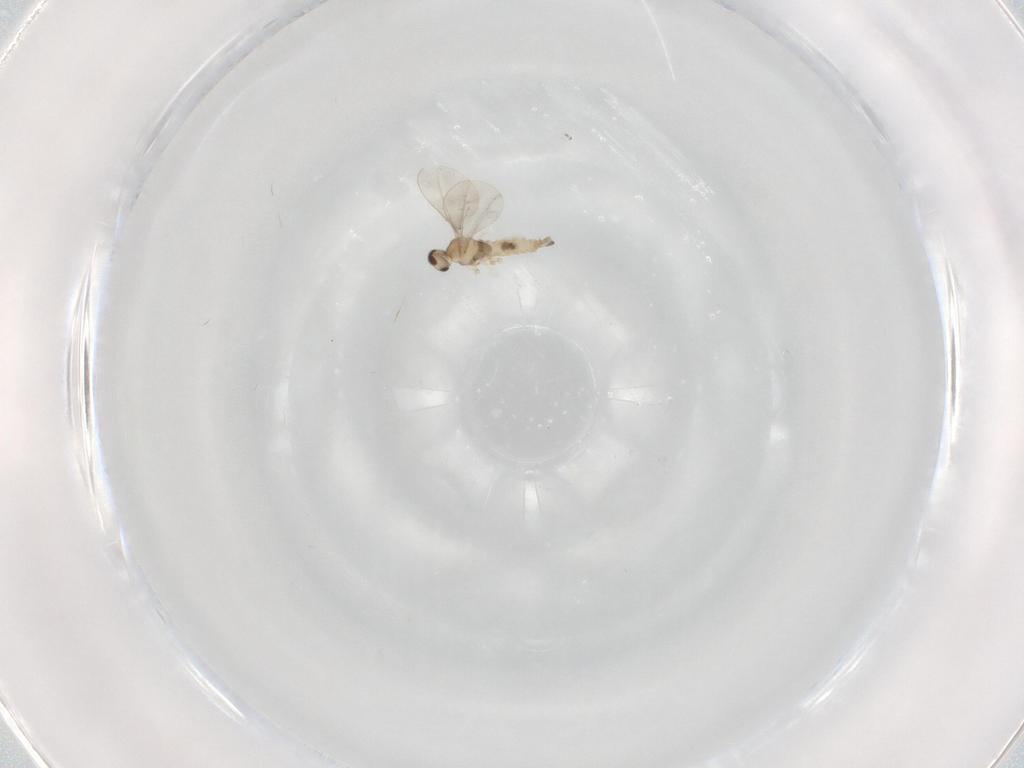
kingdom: Animalia
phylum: Arthropoda
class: Insecta
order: Diptera
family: Cecidomyiidae
